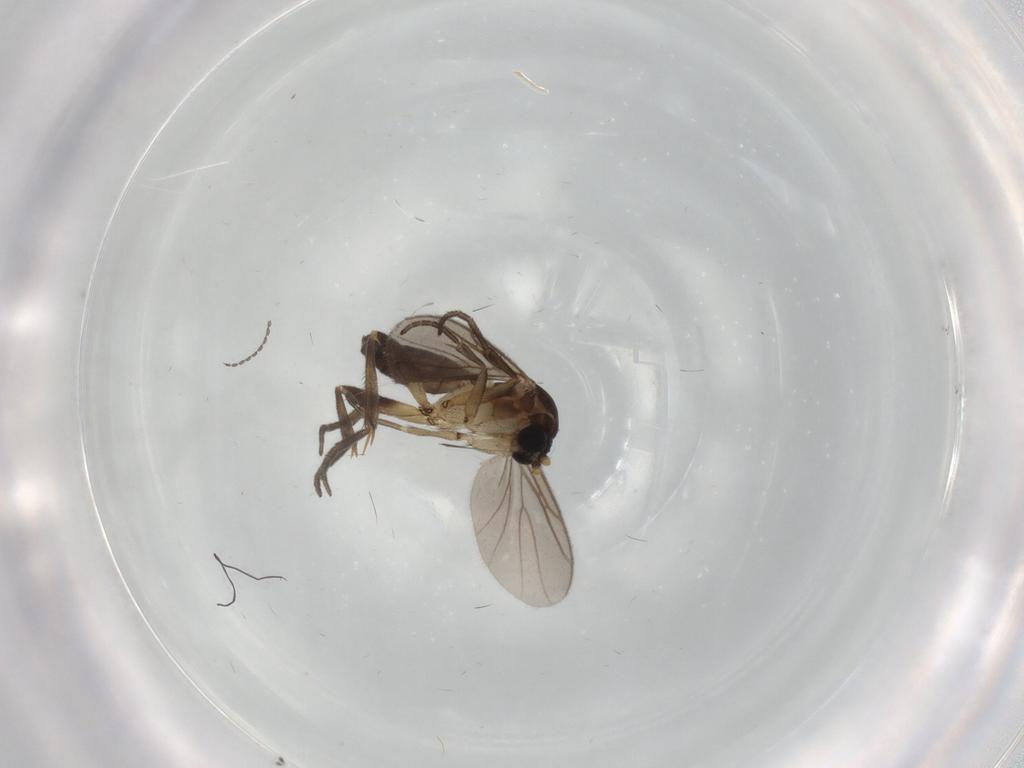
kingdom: Animalia
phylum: Arthropoda
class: Insecta
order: Diptera
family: Mycetophilidae
